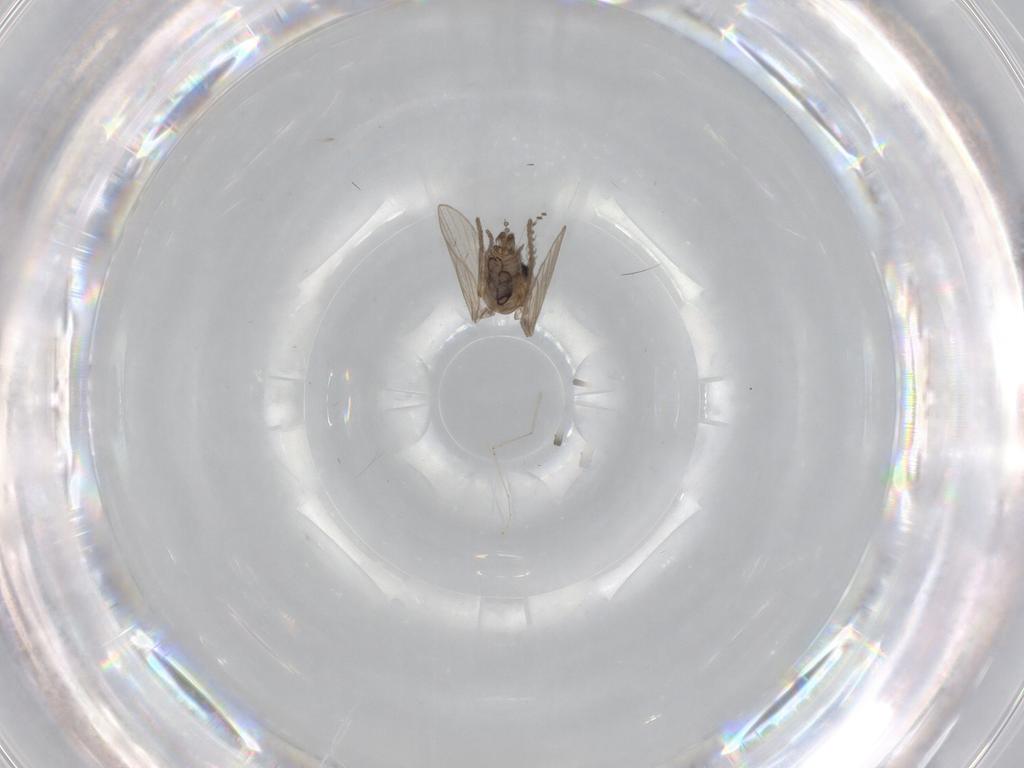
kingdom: Animalia
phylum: Arthropoda
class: Insecta
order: Diptera
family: Psychodidae
